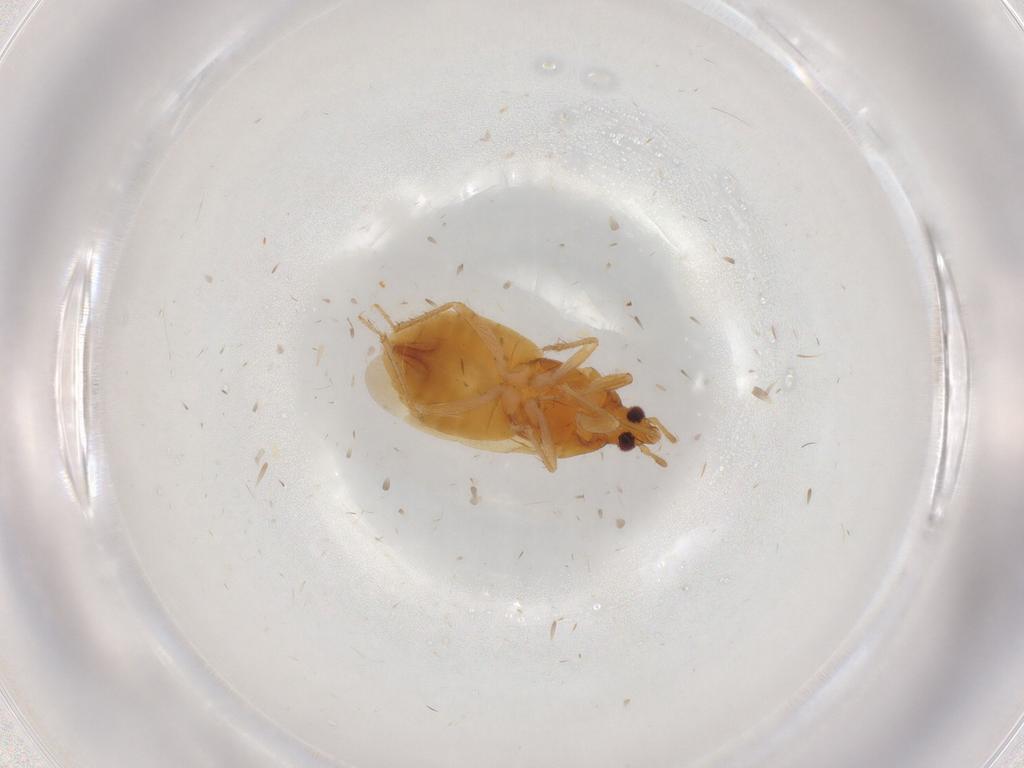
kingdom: Animalia
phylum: Arthropoda
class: Insecta
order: Hemiptera
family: Lasiochilidae
